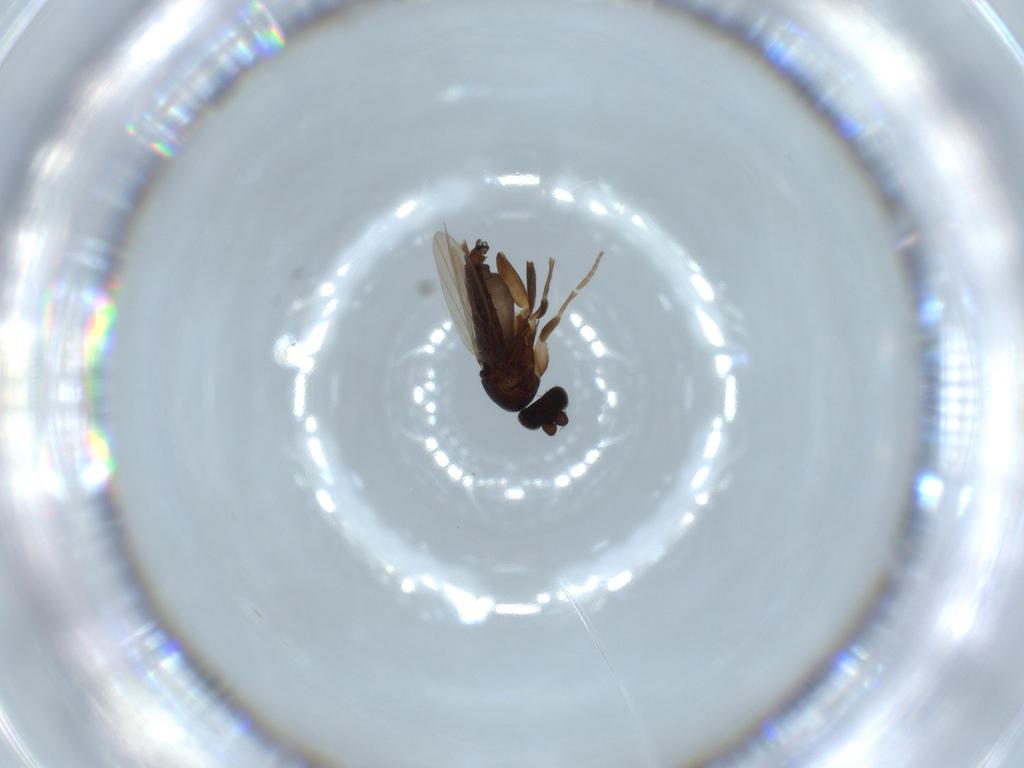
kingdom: Animalia
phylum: Arthropoda
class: Insecta
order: Diptera
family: Phoridae
